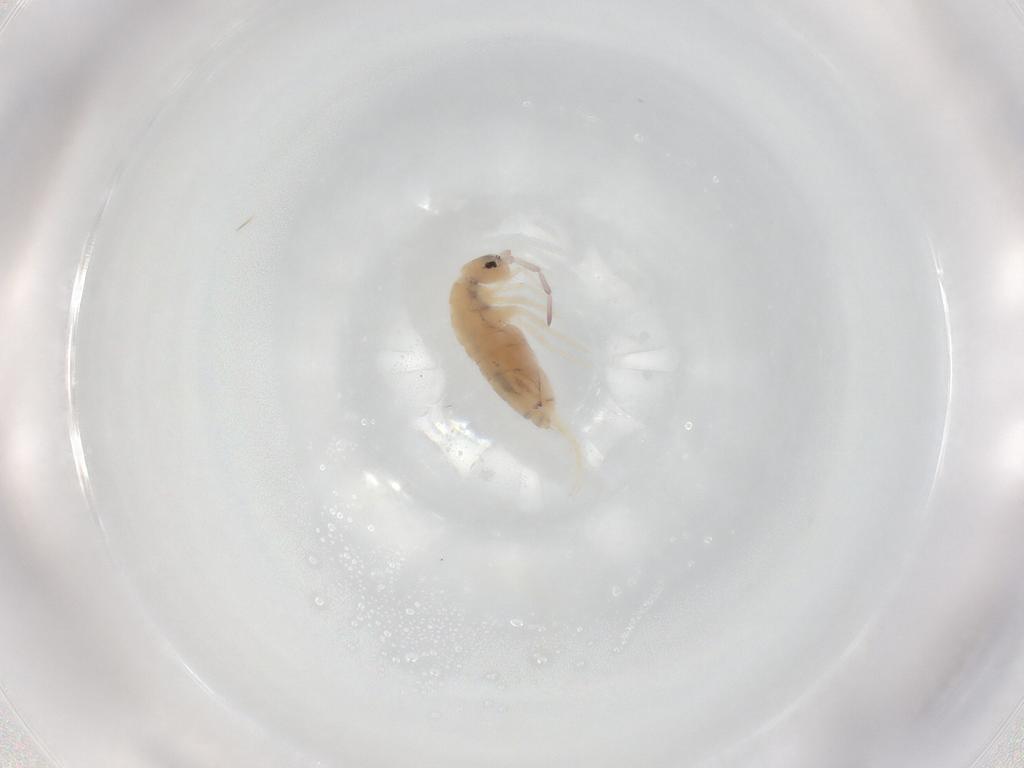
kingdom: Animalia
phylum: Arthropoda
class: Collembola
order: Entomobryomorpha
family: Entomobryidae
